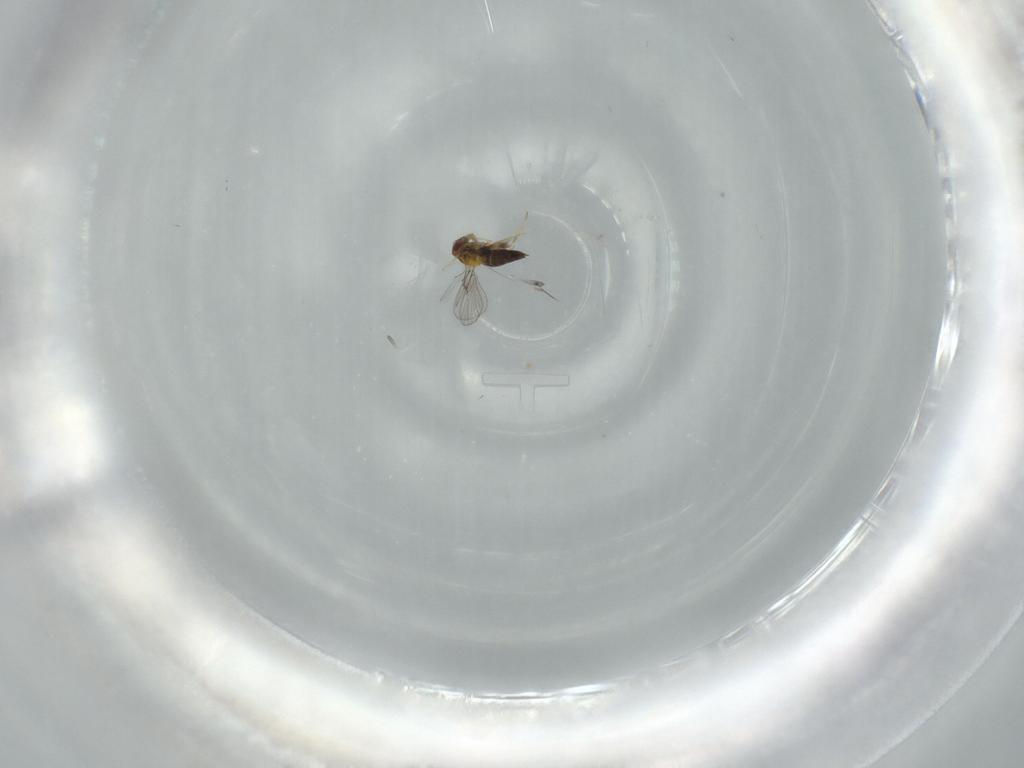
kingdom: Animalia
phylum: Arthropoda
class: Insecta
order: Hymenoptera
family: Trichogrammatidae
